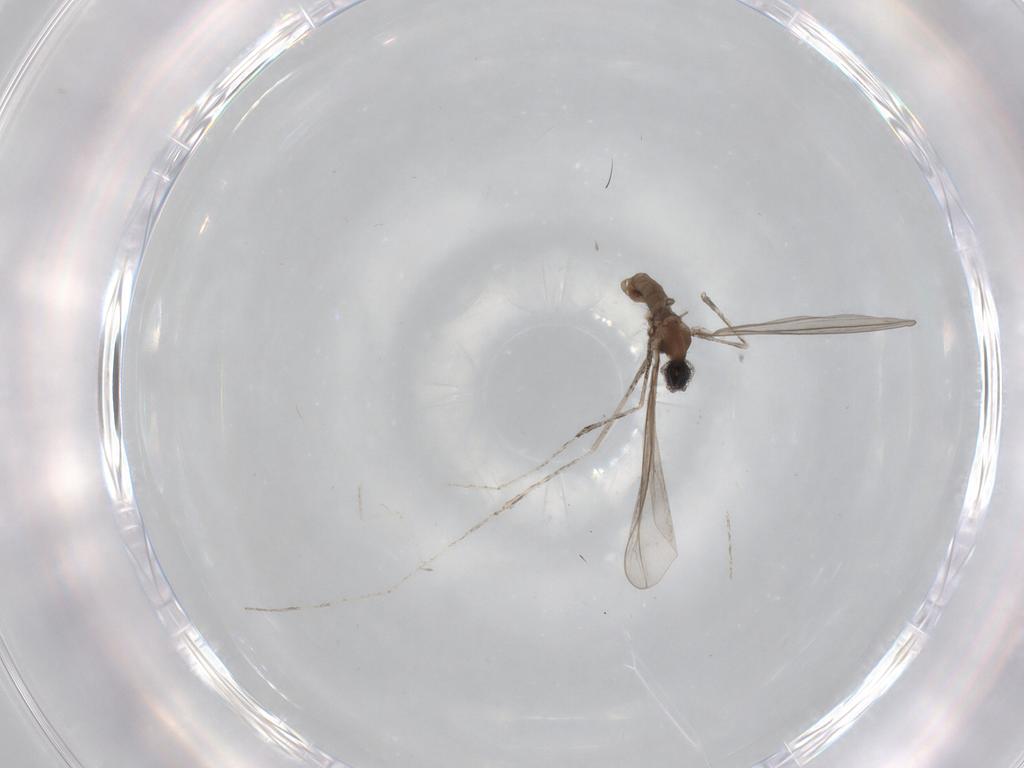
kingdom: Animalia
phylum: Arthropoda
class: Insecta
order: Diptera
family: Cecidomyiidae
